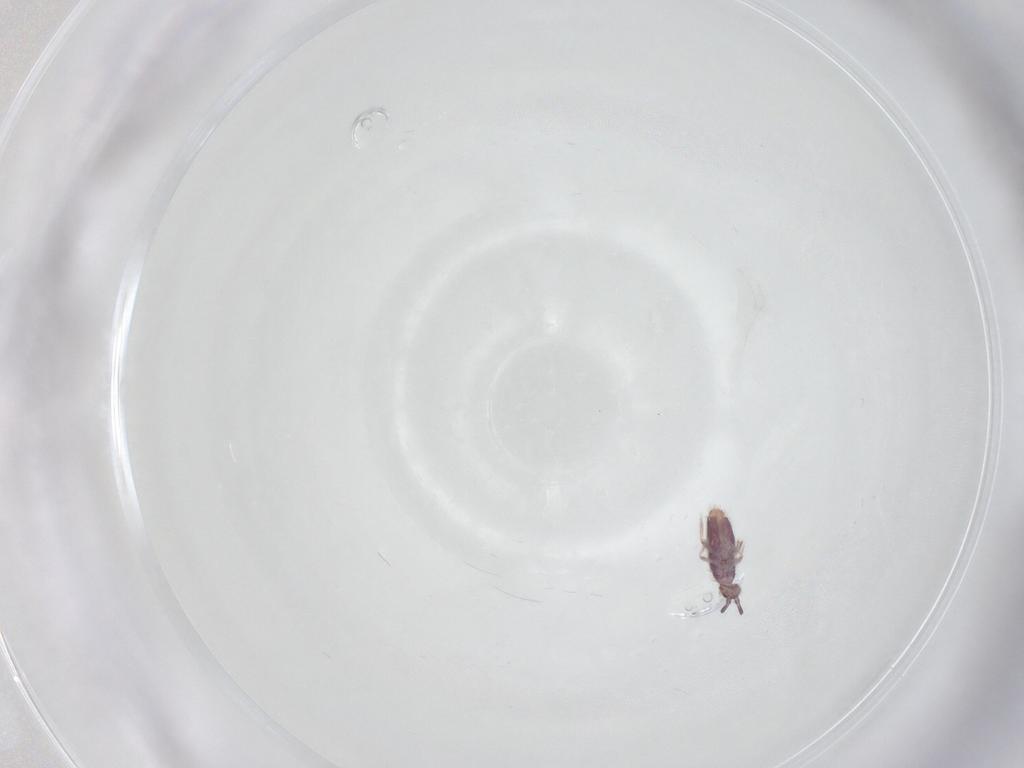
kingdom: Animalia
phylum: Arthropoda
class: Collembola
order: Entomobryomorpha
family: Entomobryidae
